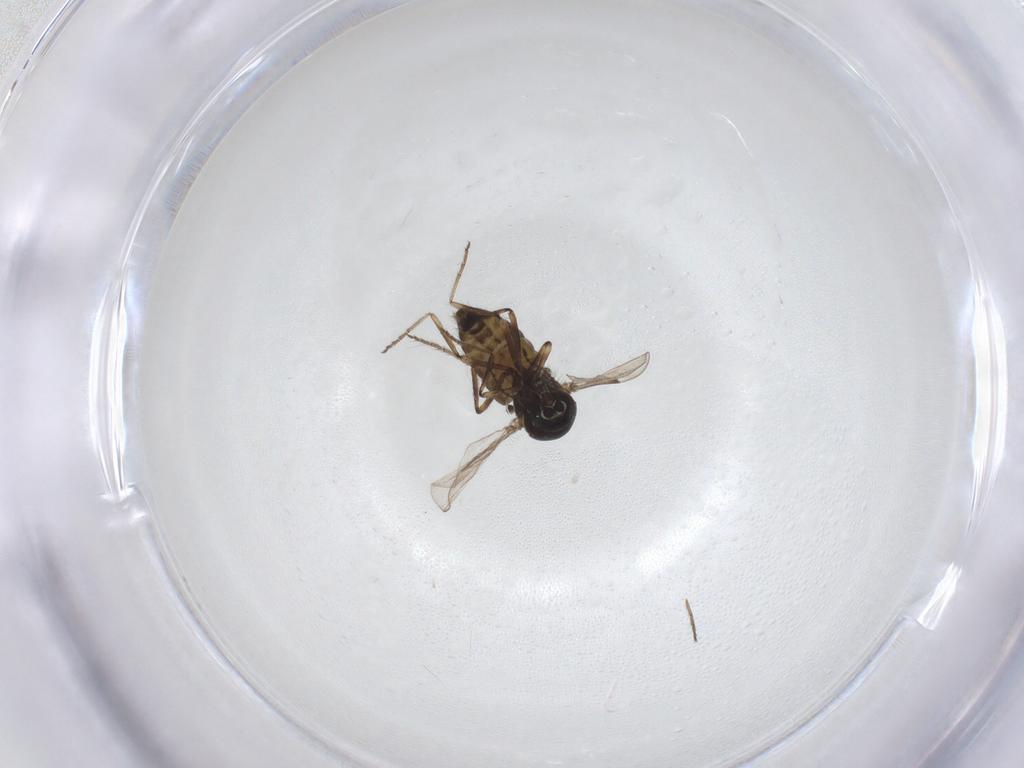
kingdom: Animalia
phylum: Arthropoda
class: Insecta
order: Diptera
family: Ceratopogonidae
